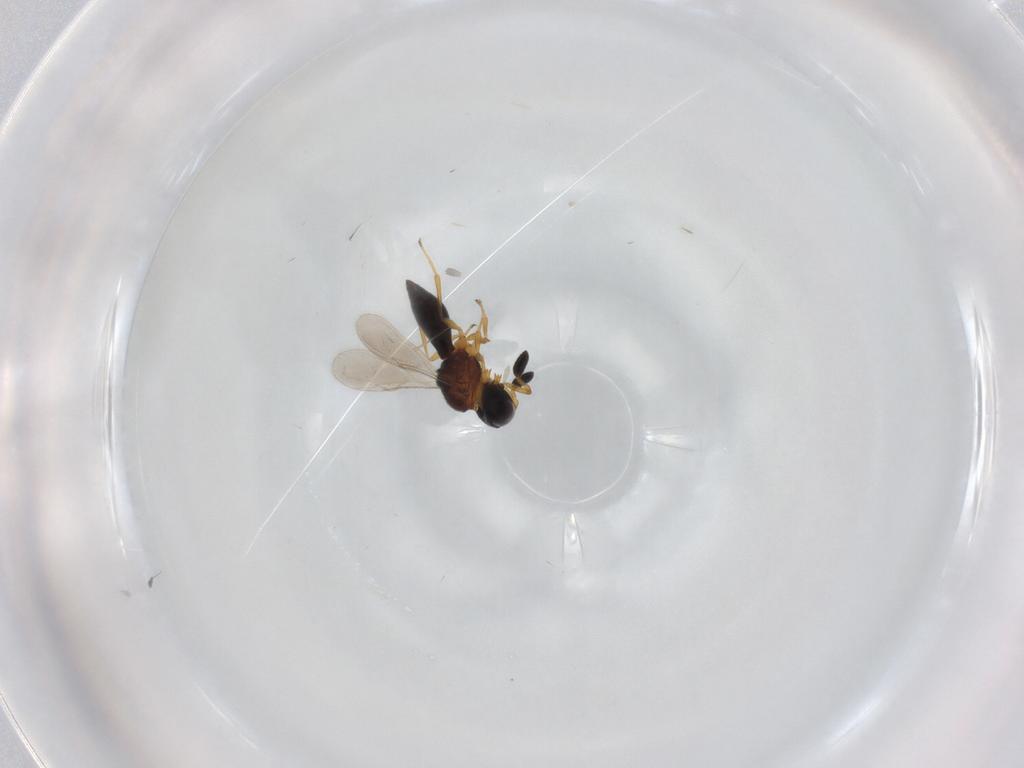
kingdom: Animalia
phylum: Arthropoda
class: Insecta
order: Hymenoptera
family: Scelionidae
